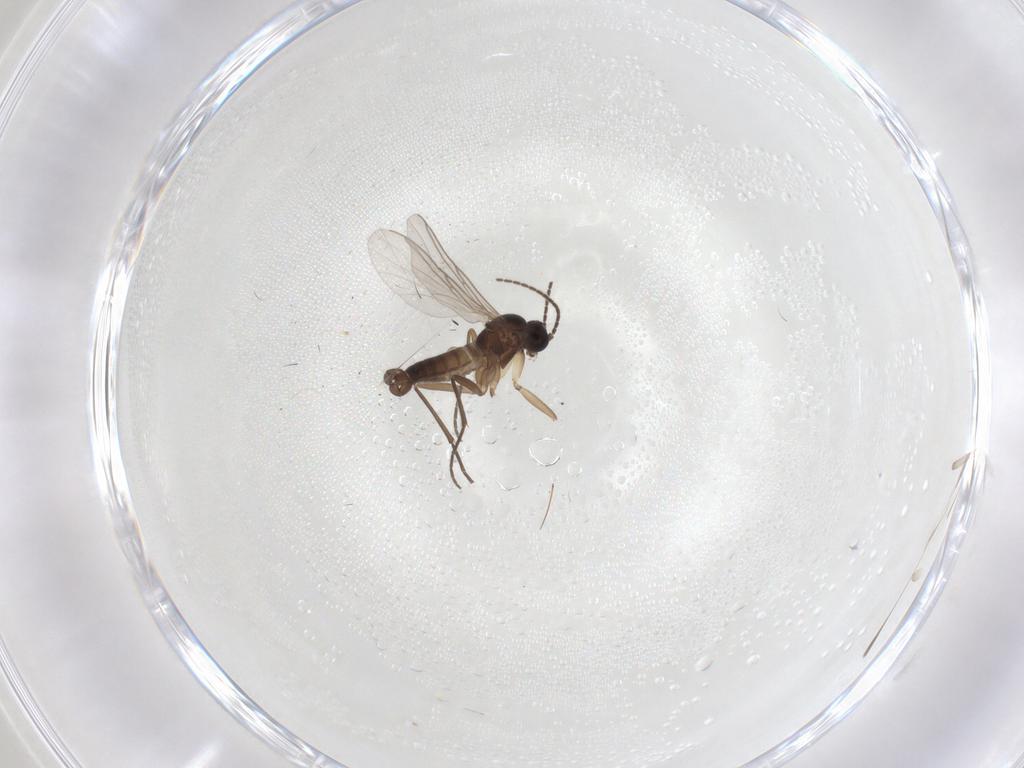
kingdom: Animalia
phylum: Arthropoda
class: Insecta
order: Diptera
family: Sciaridae
